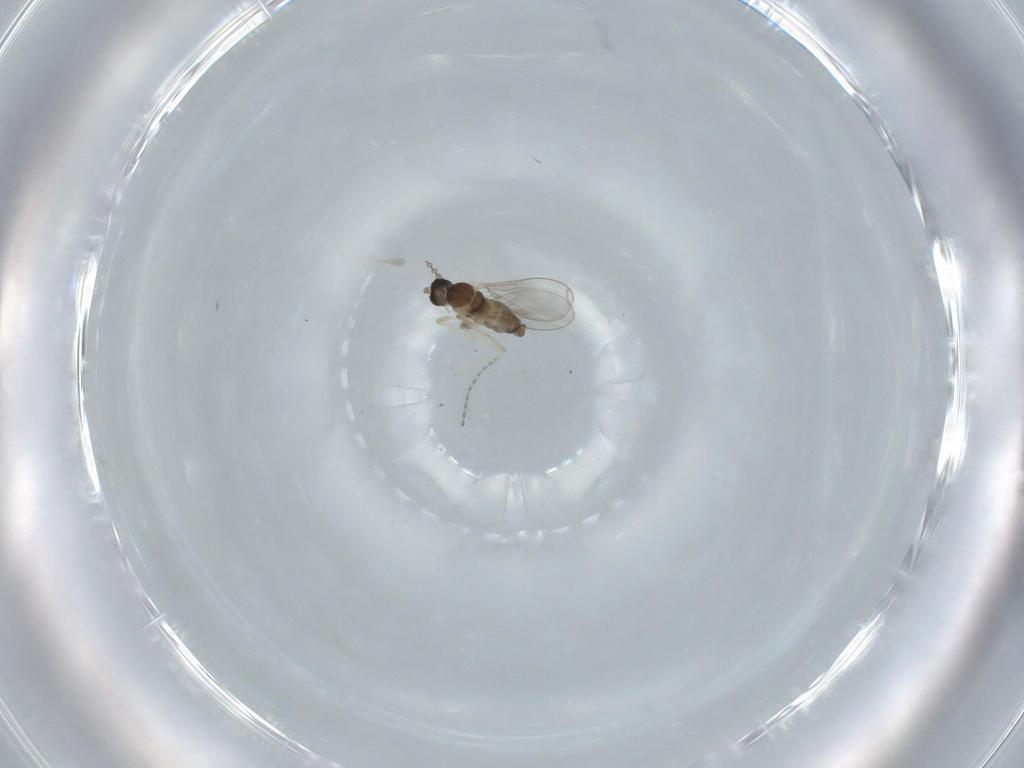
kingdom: Animalia
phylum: Arthropoda
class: Insecta
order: Diptera
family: Cecidomyiidae
